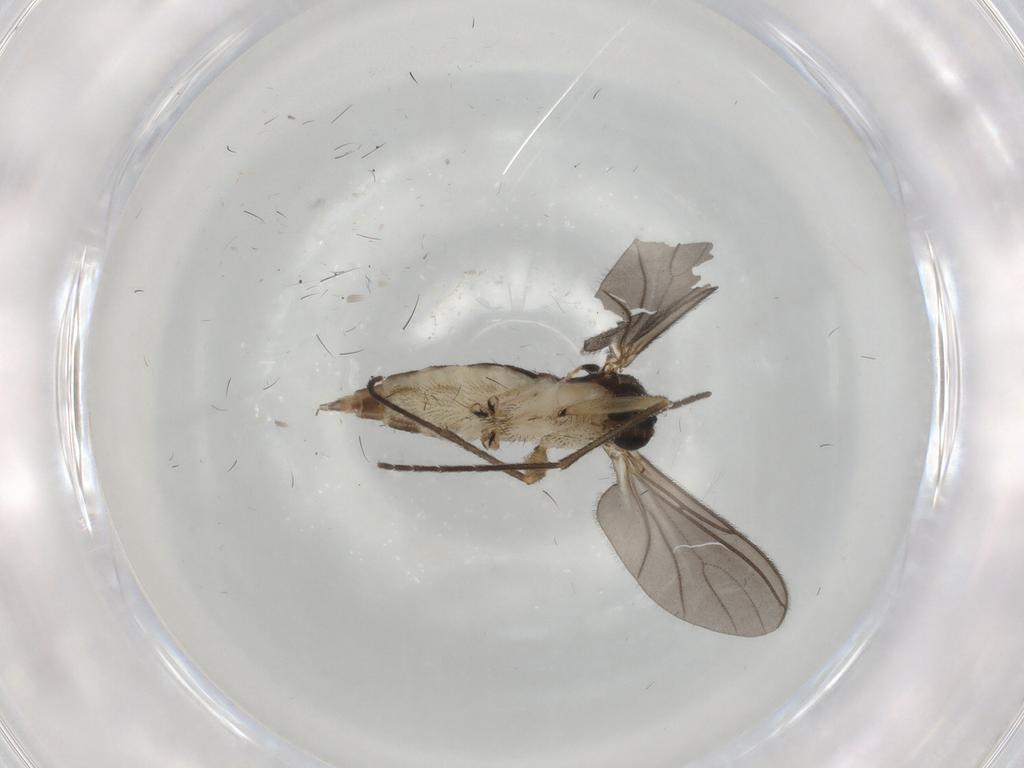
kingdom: Animalia
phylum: Arthropoda
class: Insecta
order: Diptera
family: Sciaridae
